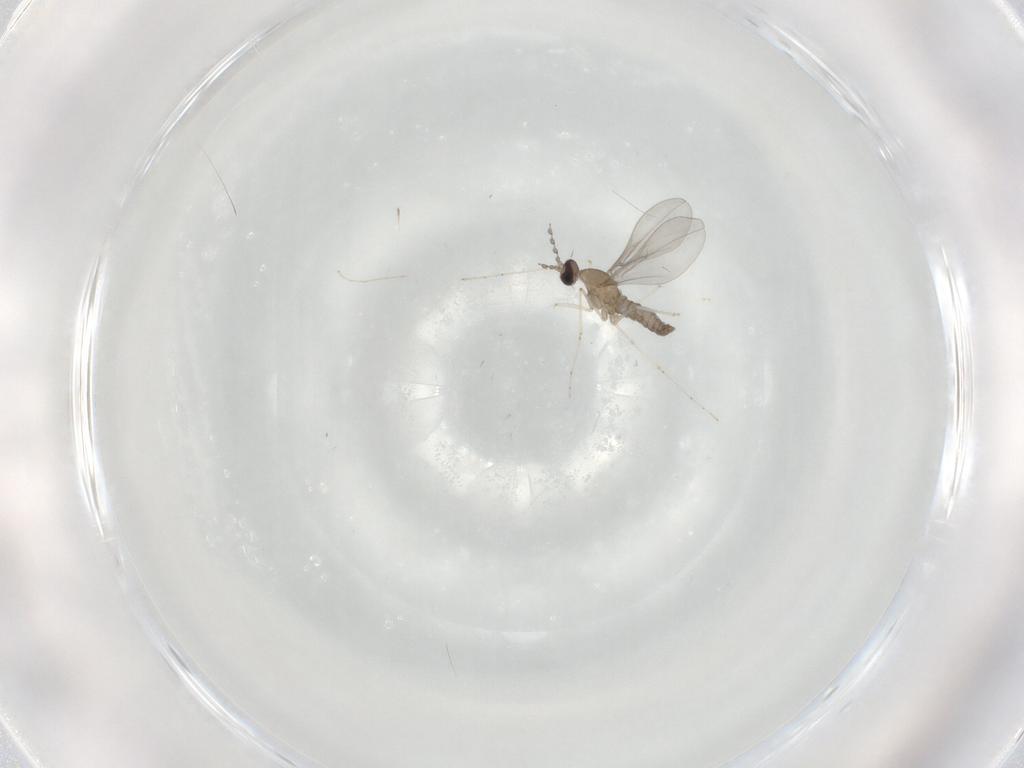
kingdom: Animalia
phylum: Arthropoda
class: Insecta
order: Diptera
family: Cecidomyiidae
